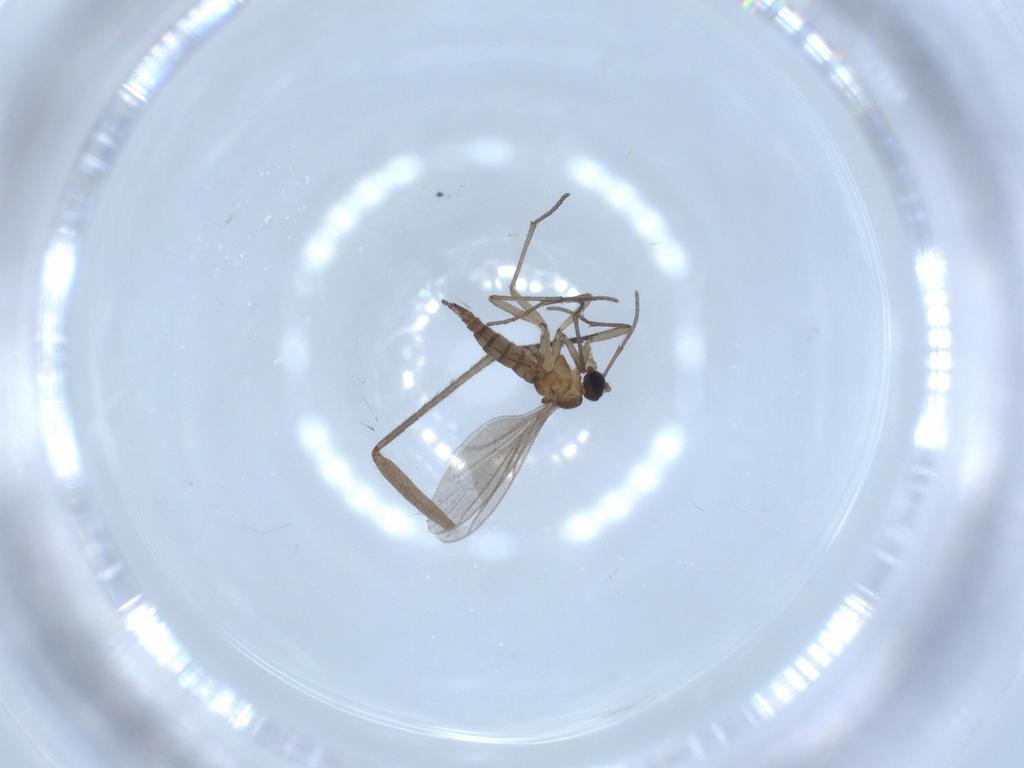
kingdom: Animalia
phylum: Arthropoda
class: Insecta
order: Diptera
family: Sciaridae
